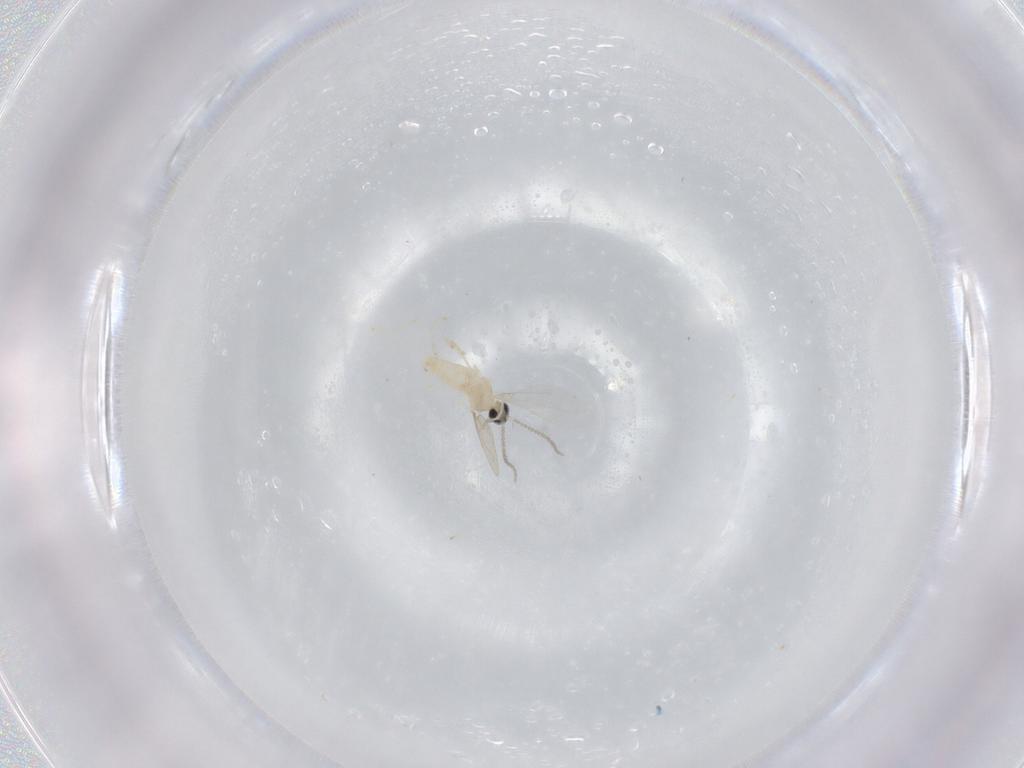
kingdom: Animalia
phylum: Arthropoda
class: Insecta
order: Diptera
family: Cecidomyiidae
